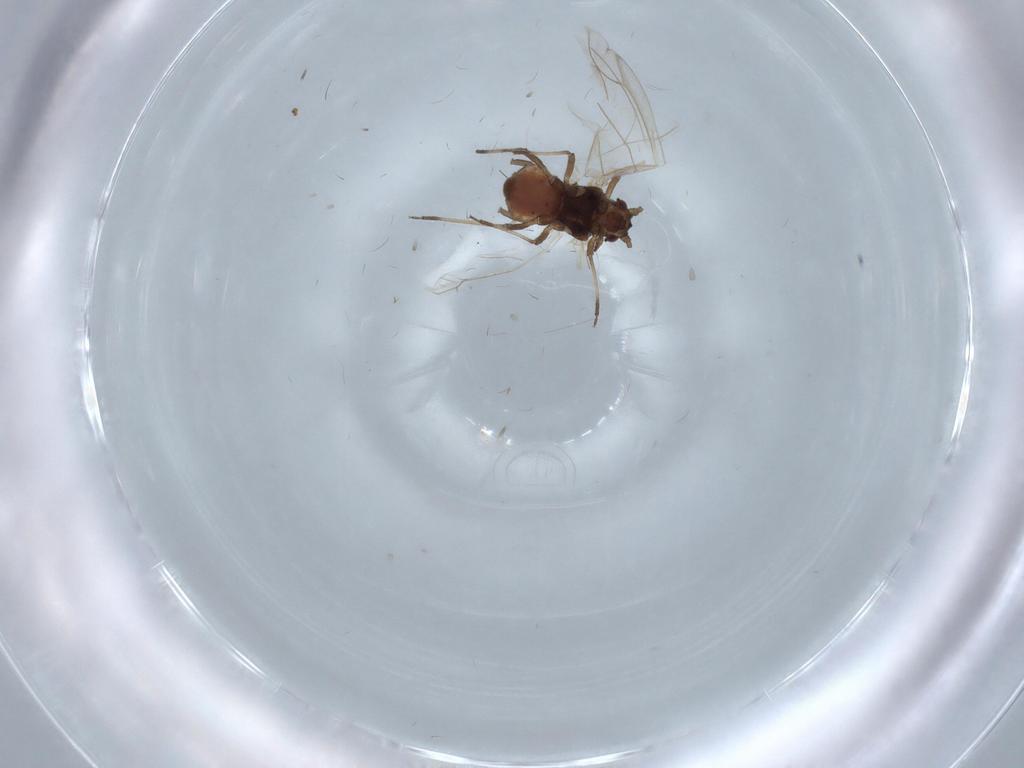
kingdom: Animalia
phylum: Arthropoda
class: Insecta
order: Hemiptera
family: Aphididae
